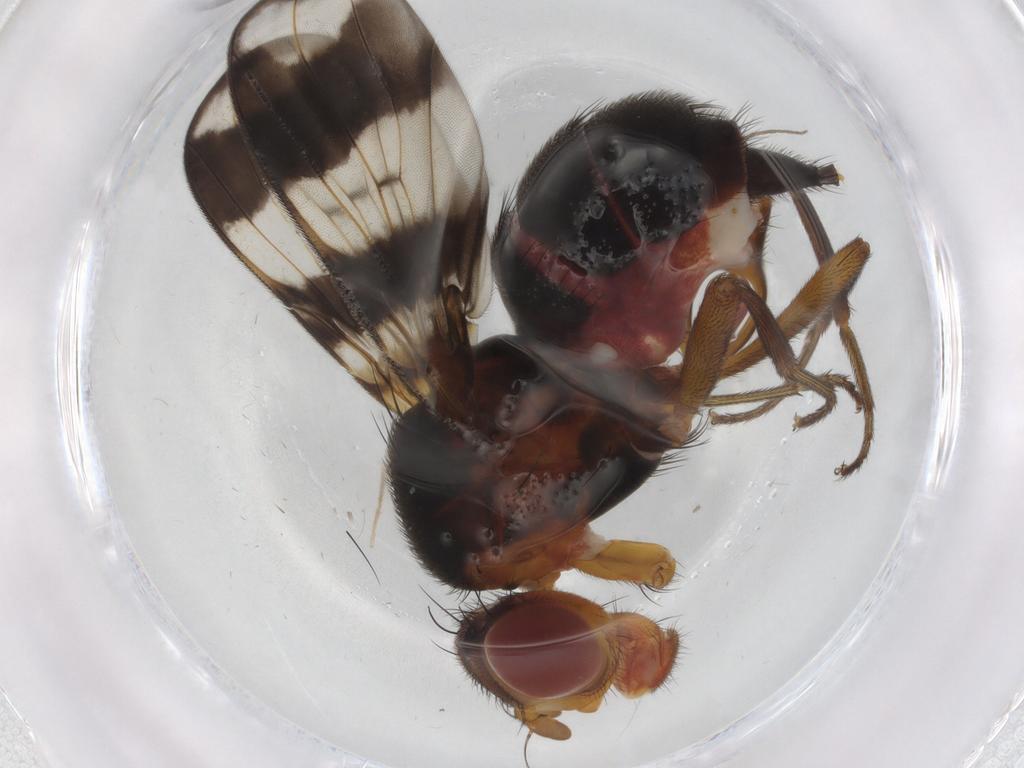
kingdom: Animalia
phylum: Arthropoda
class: Insecta
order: Diptera
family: Richardiidae
